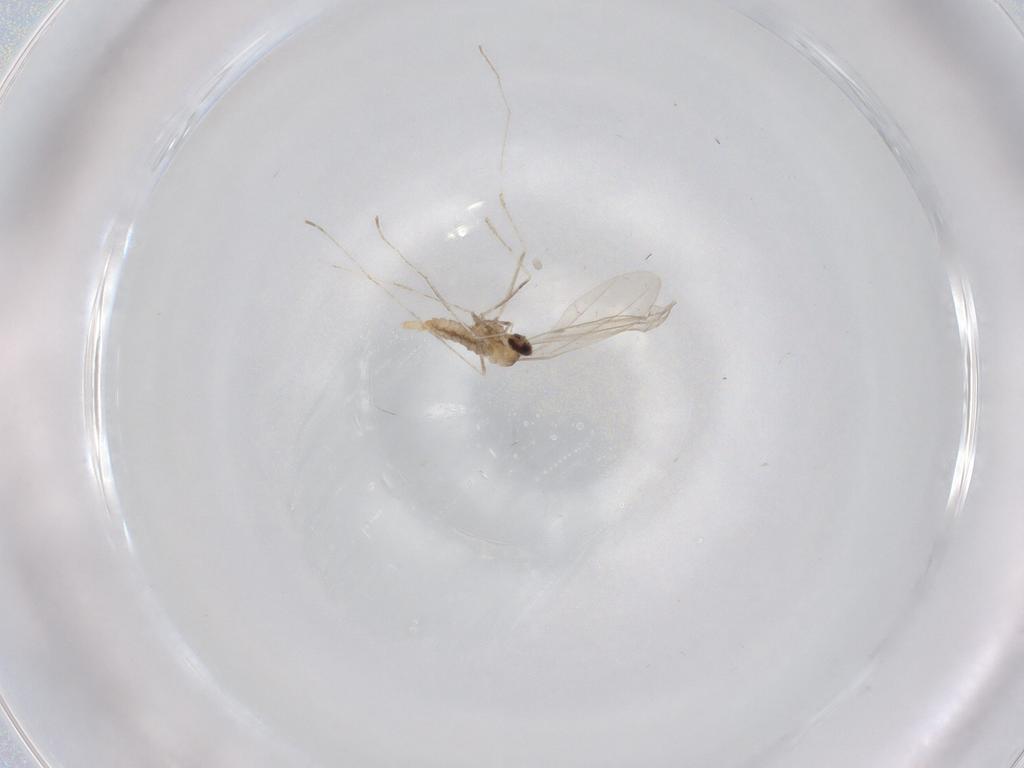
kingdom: Animalia
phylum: Arthropoda
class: Insecta
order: Diptera
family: Cecidomyiidae
